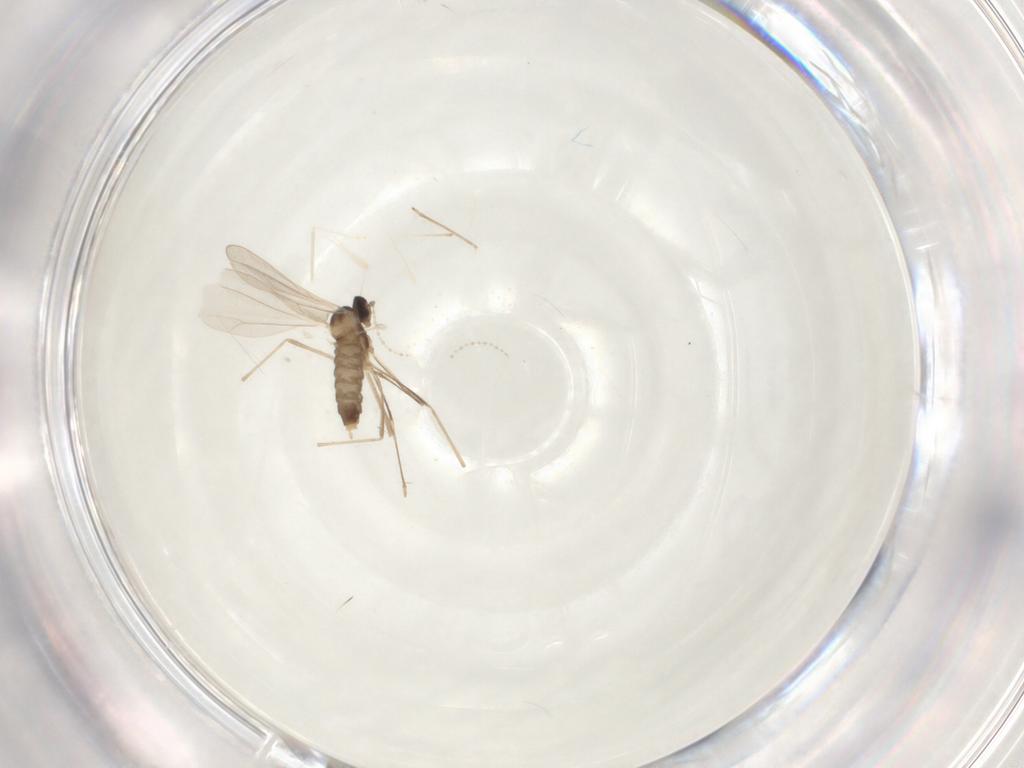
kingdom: Animalia
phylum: Arthropoda
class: Insecta
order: Diptera
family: Cecidomyiidae
